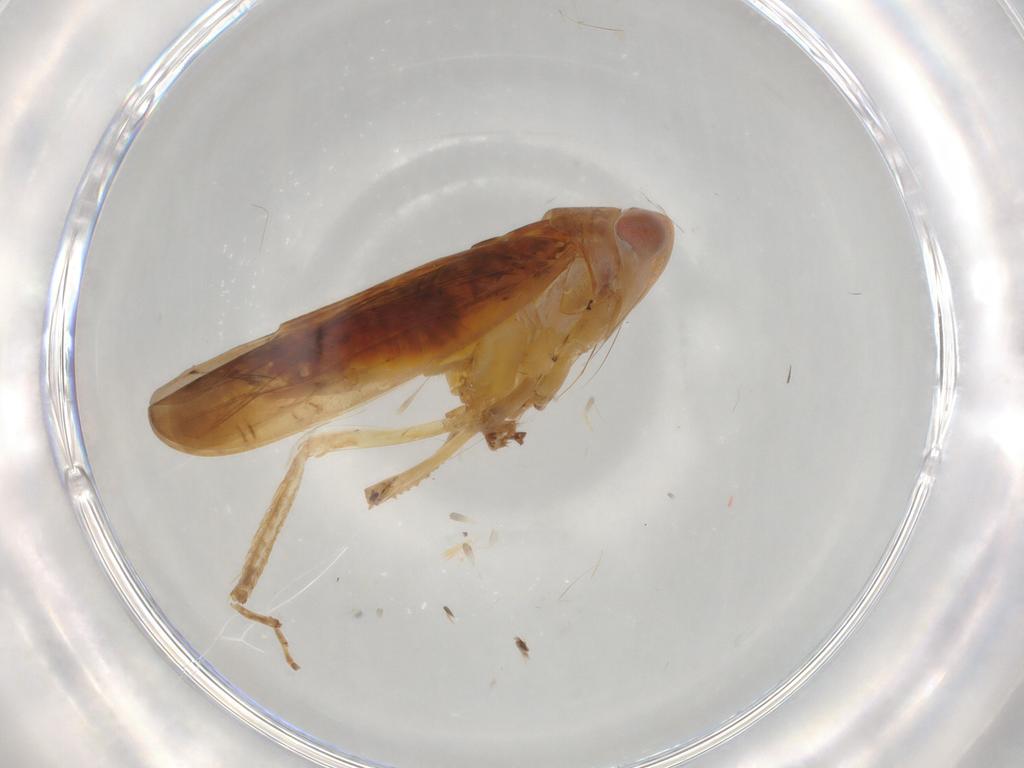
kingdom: Animalia
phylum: Arthropoda
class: Insecta
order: Hemiptera
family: Cicadellidae
